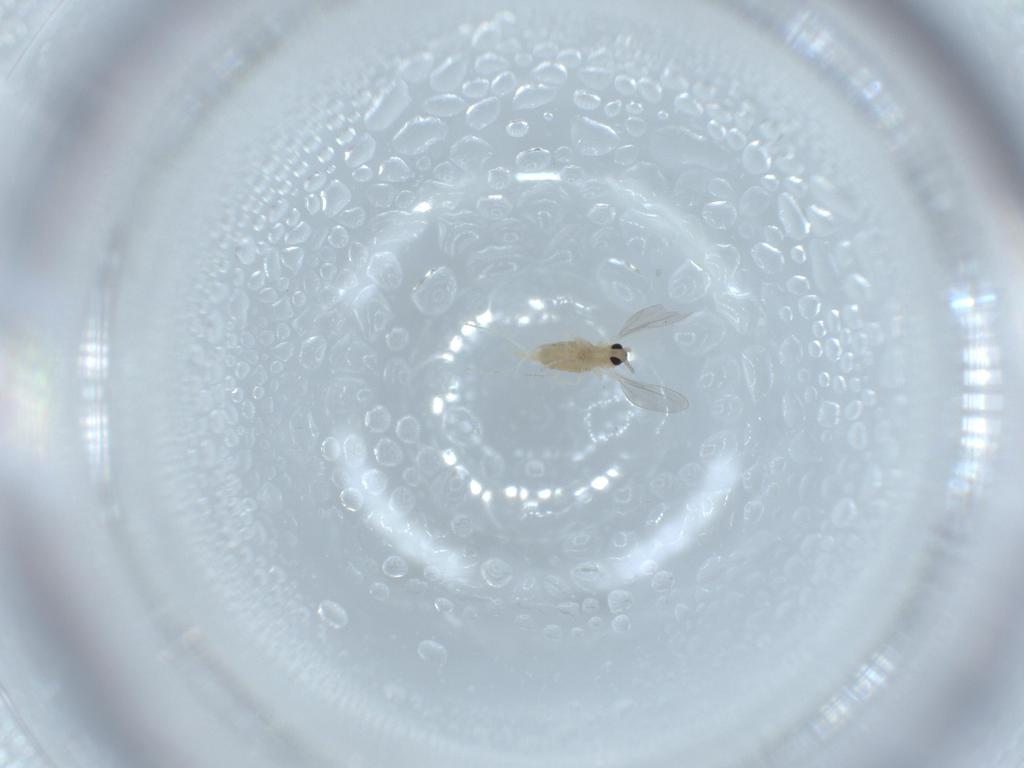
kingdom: Animalia
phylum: Arthropoda
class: Insecta
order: Diptera
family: Cecidomyiidae
